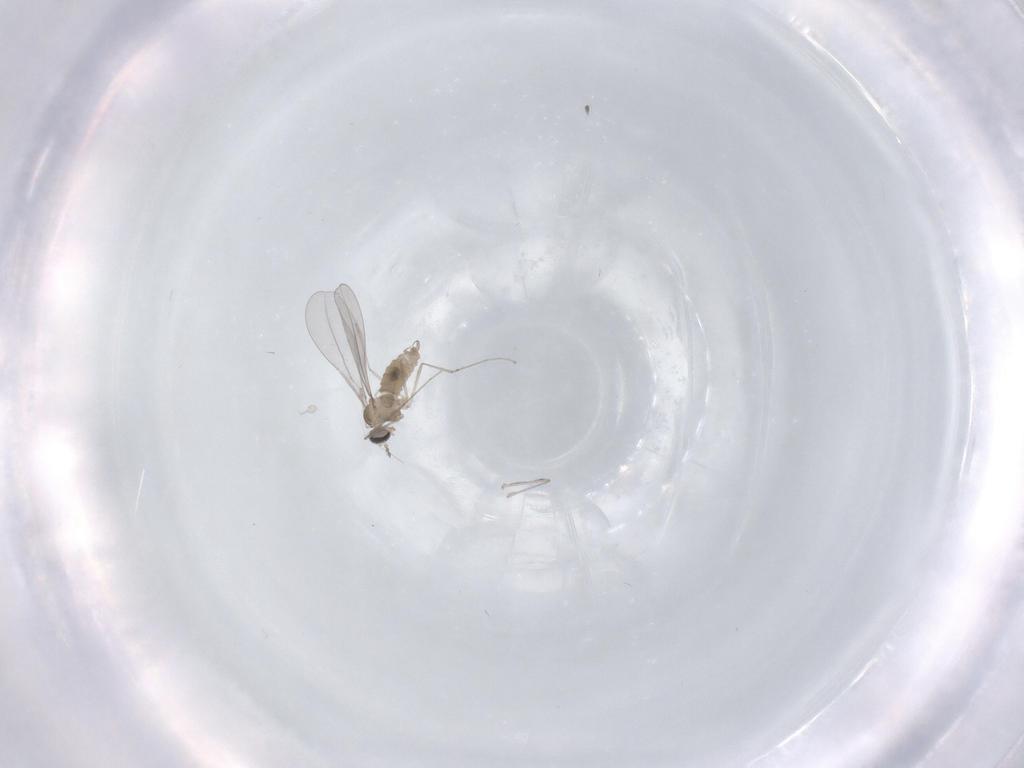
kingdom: Animalia
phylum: Arthropoda
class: Insecta
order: Diptera
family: Cecidomyiidae
